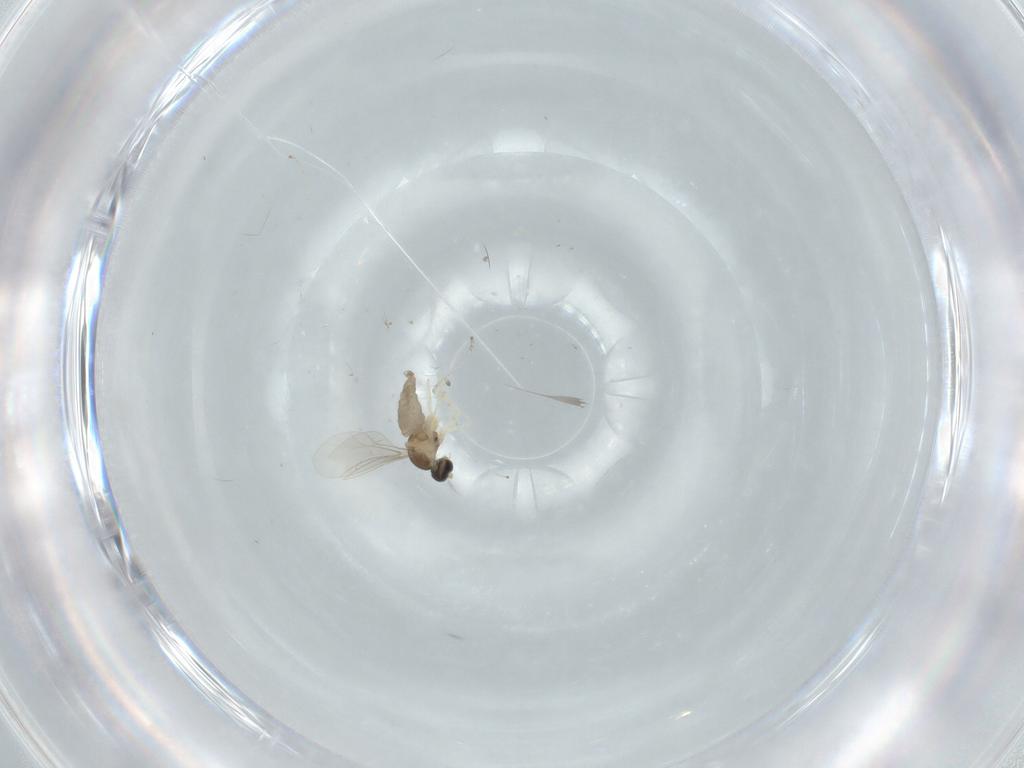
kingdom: Animalia
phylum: Arthropoda
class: Insecta
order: Diptera
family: Cecidomyiidae
